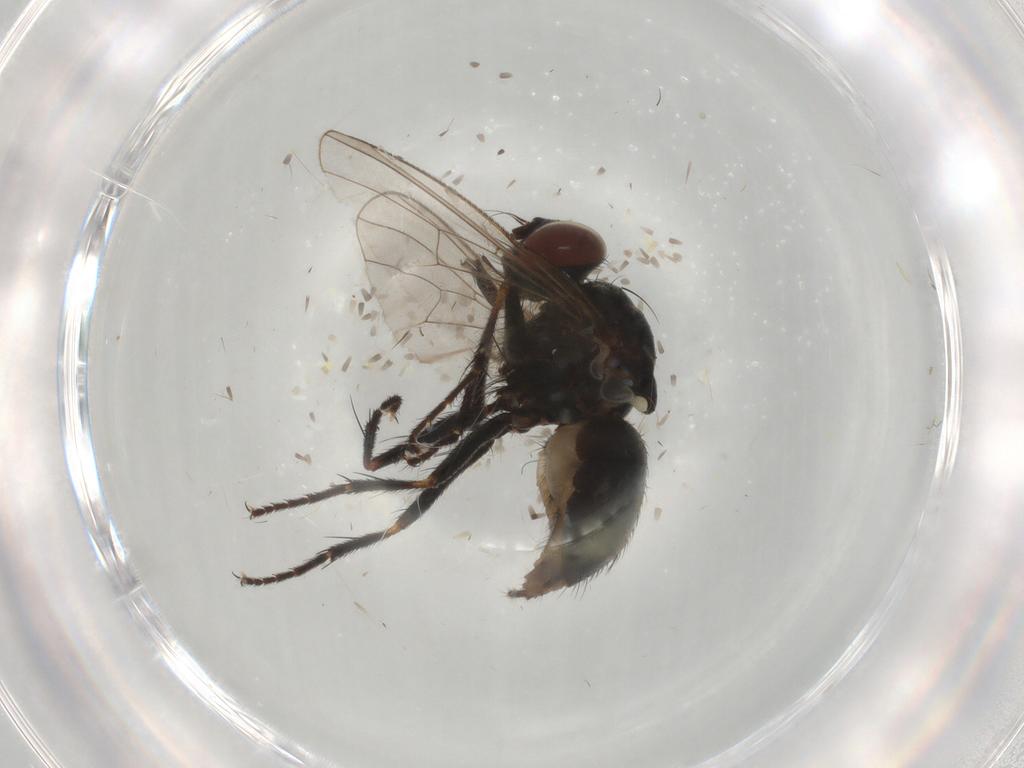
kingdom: Animalia
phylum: Arthropoda
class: Insecta
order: Diptera
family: Muscidae
